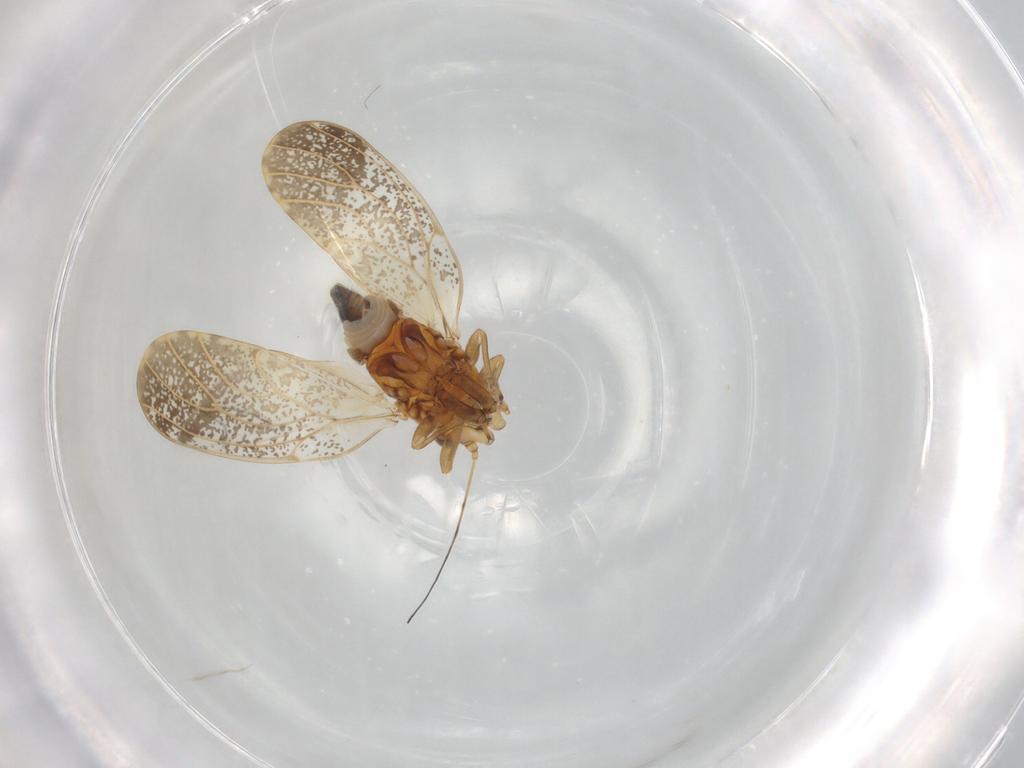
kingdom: Animalia
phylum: Arthropoda
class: Insecta
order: Hemiptera
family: Psyllidae
